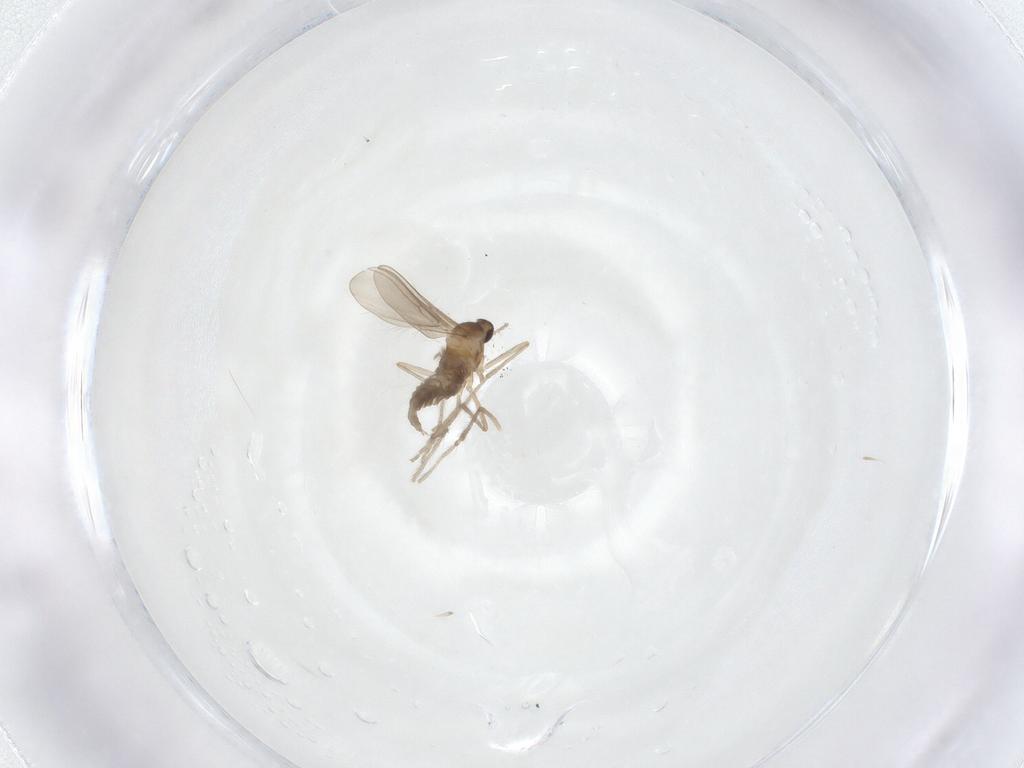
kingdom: Animalia
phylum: Arthropoda
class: Insecta
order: Diptera
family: Cecidomyiidae
